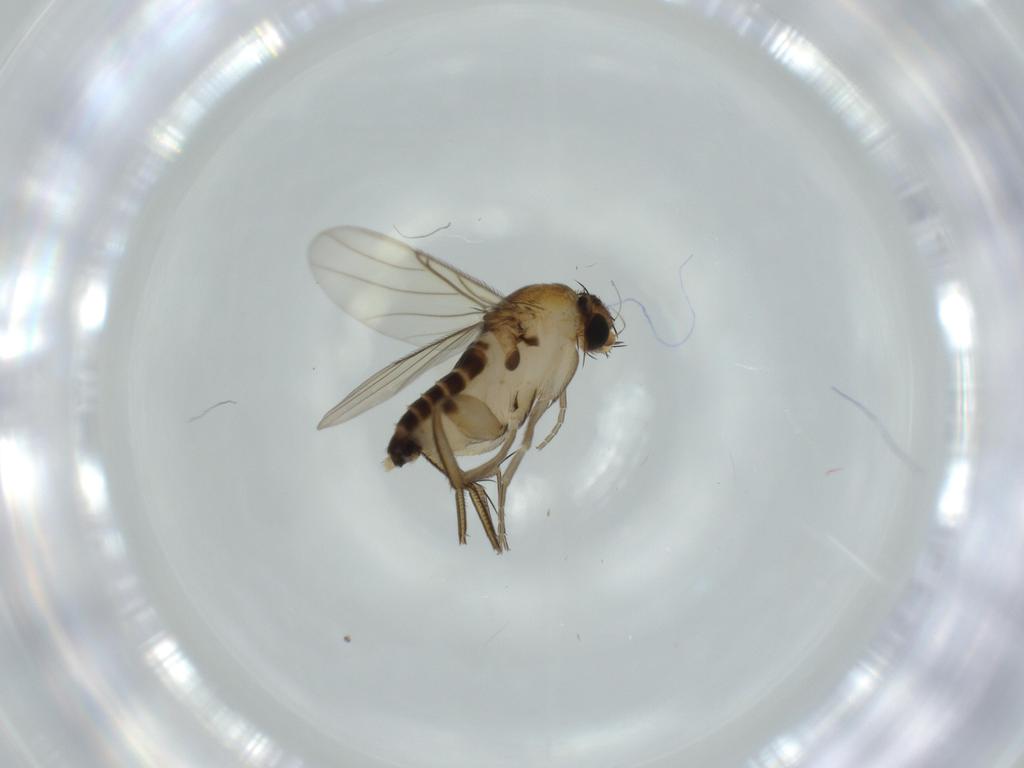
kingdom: Animalia
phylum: Arthropoda
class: Insecta
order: Diptera
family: Phoridae
